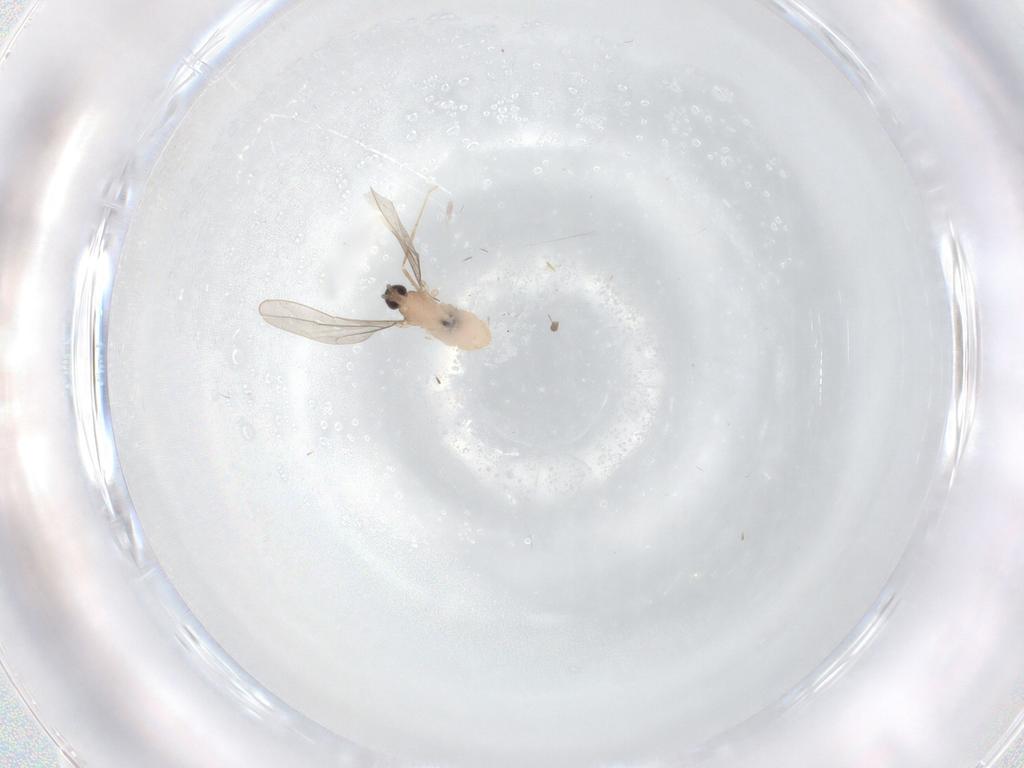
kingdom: Animalia
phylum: Arthropoda
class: Insecta
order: Diptera
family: Cecidomyiidae
